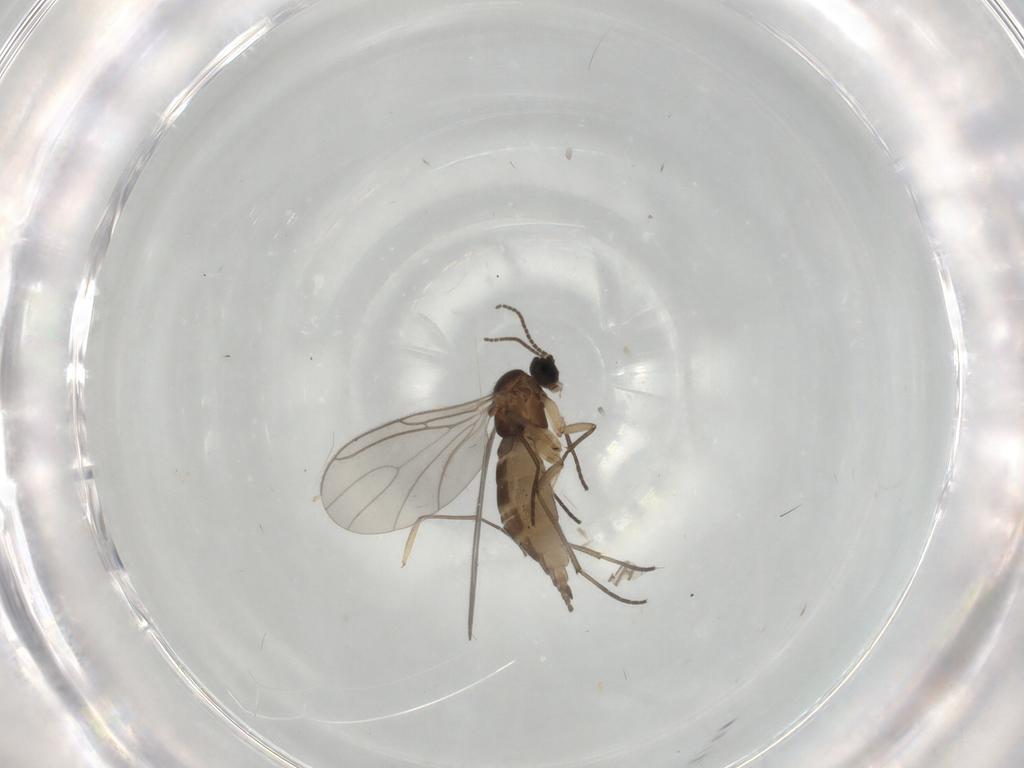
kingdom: Animalia
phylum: Arthropoda
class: Insecta
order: Diptera
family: Sciaridae
